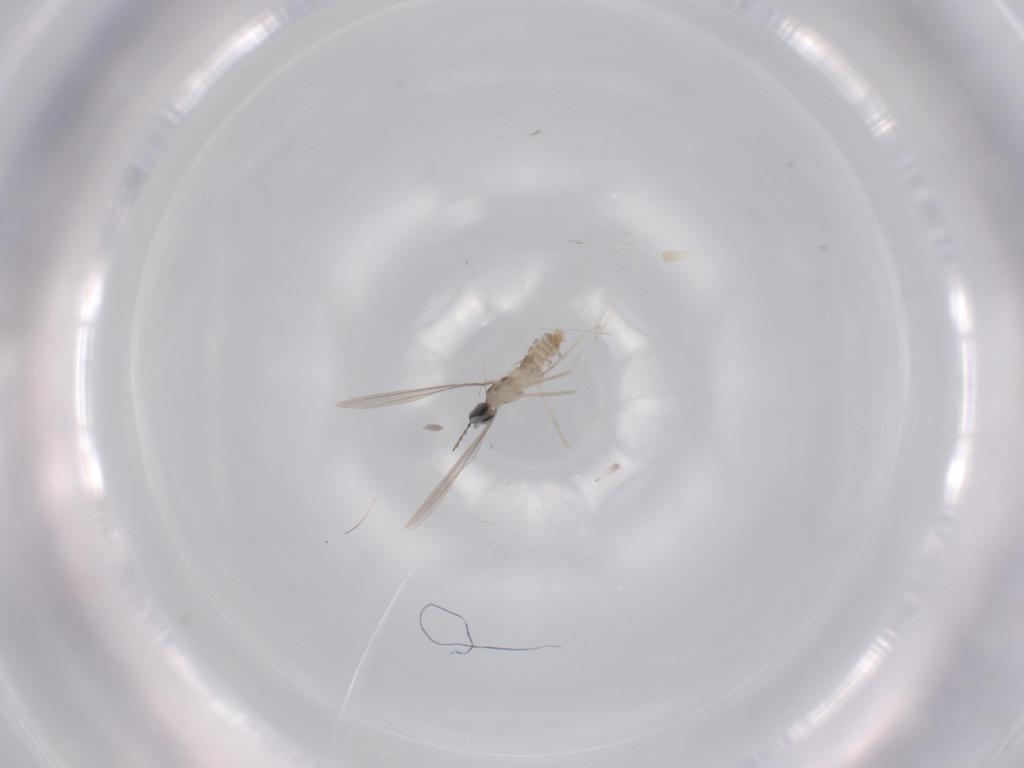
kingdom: Animalia
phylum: Arthropoda
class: Insecta
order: Diptera
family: Cecidomyiidae
